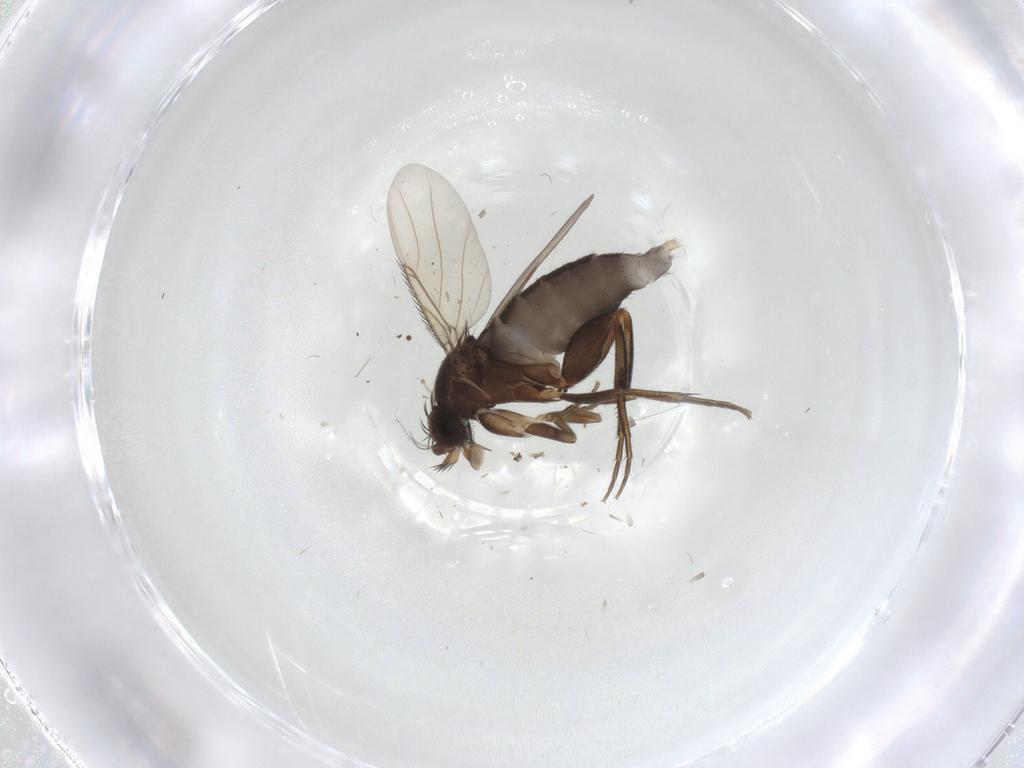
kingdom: Animalia
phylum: Arthropoda
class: Insecta
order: Diptera
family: Phoridae
